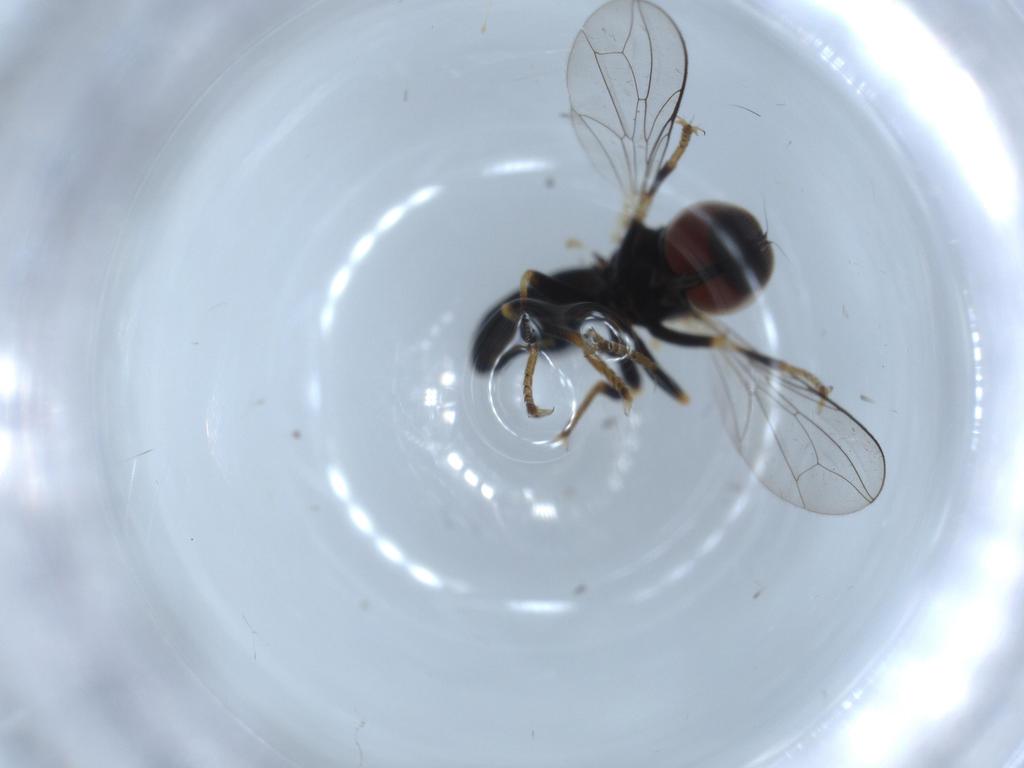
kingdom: Animalia
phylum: Arthropoda
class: Insecta
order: Diptera
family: Pipunculidae
